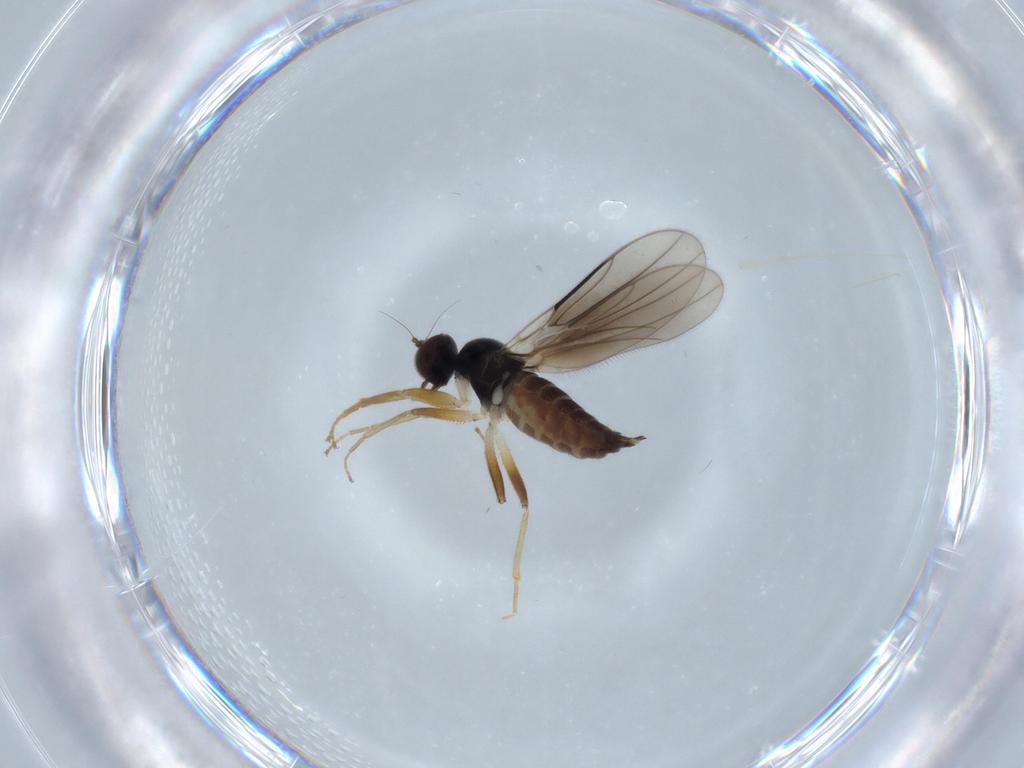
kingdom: Animalia
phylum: Arthropoda
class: Insecta
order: Diptera
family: Hybotidae
